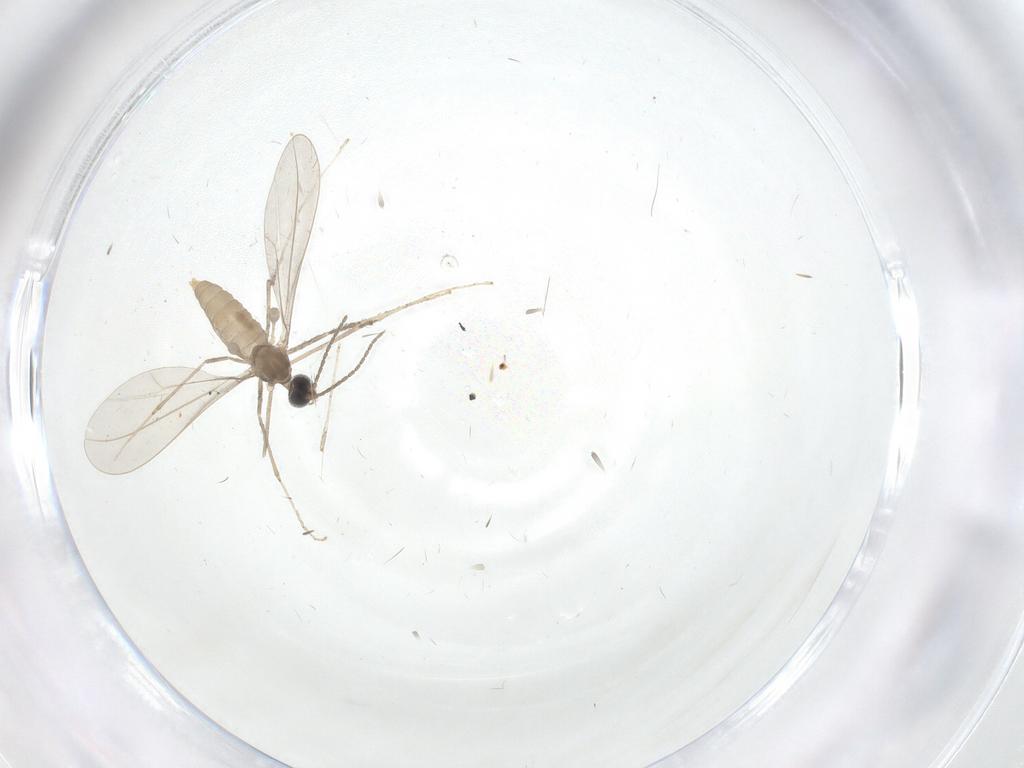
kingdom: Animalia
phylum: Arthropoda
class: Insecta
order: Diptera
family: Cecidomyiidae
